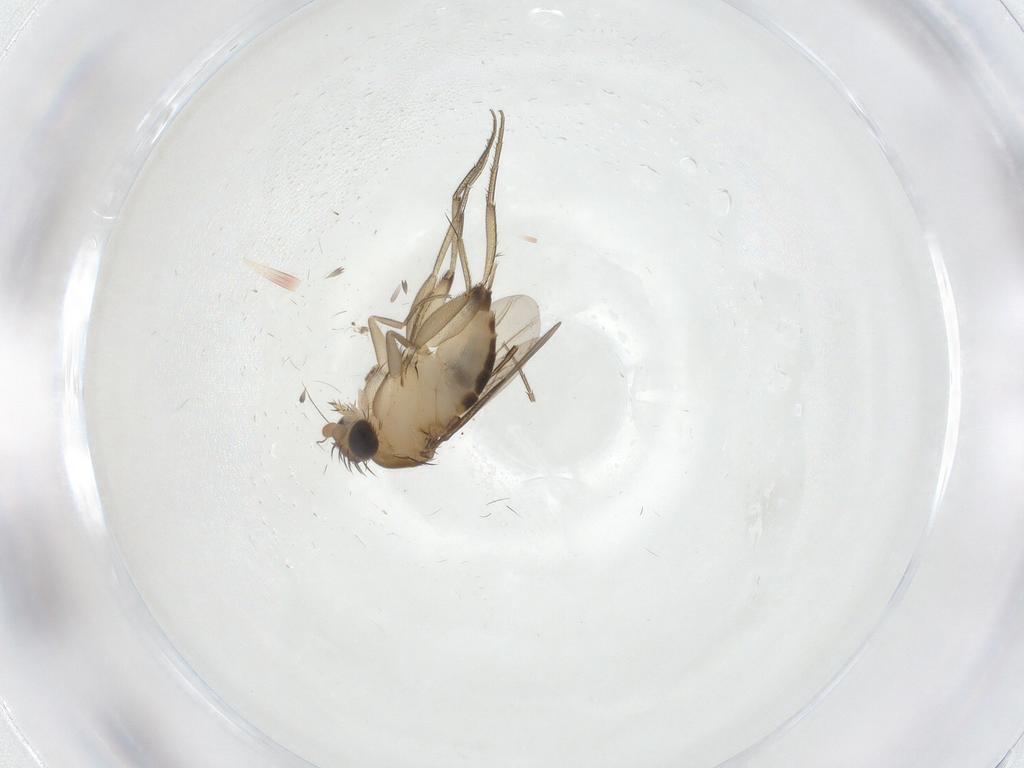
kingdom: Animalia
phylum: Arthropoda
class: Insecta
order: Diptera
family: Phoridae
